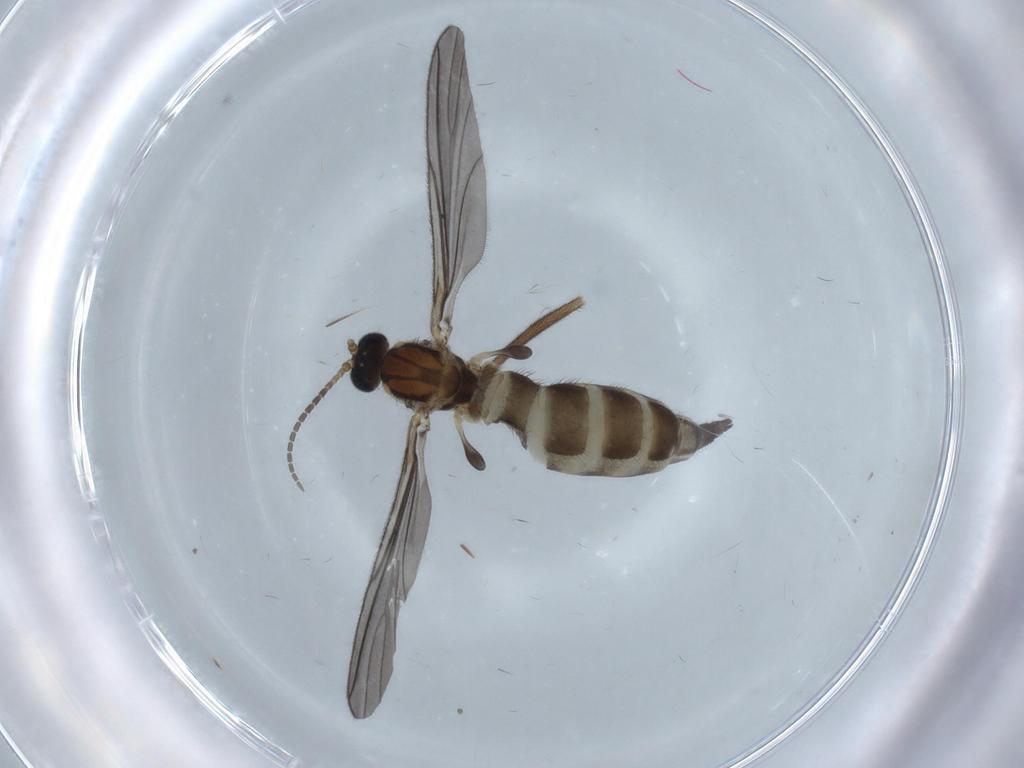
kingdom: Animalia
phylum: Arthropoda
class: Insecta
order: Diptera
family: Sciaridae
